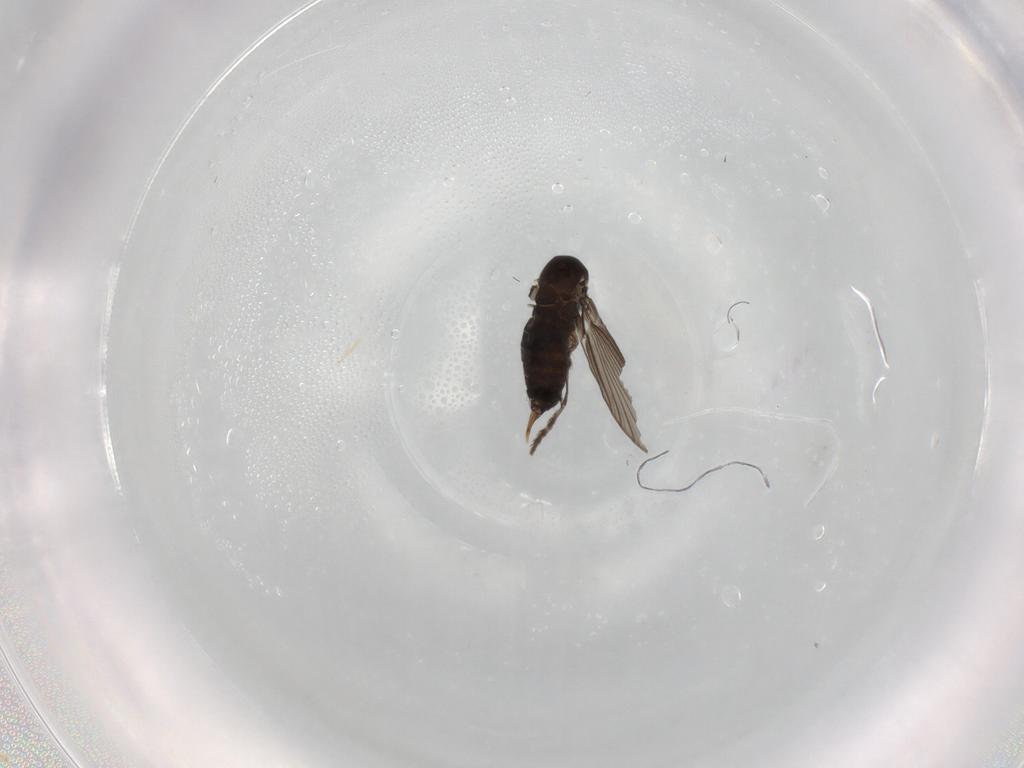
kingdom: Animalia
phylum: Arthropoda
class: Insecta
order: Diptera
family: Psychodidae
